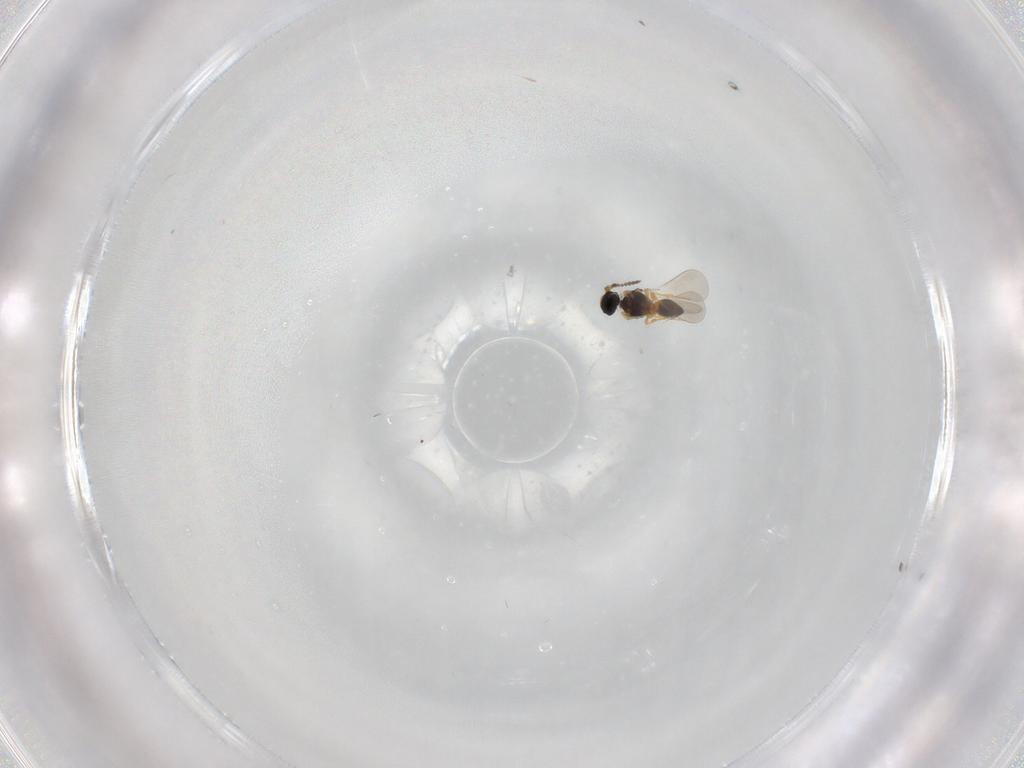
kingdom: Animalia
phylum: Arthropoda
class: Insecta
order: Hymenoptera
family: Platygastridae
